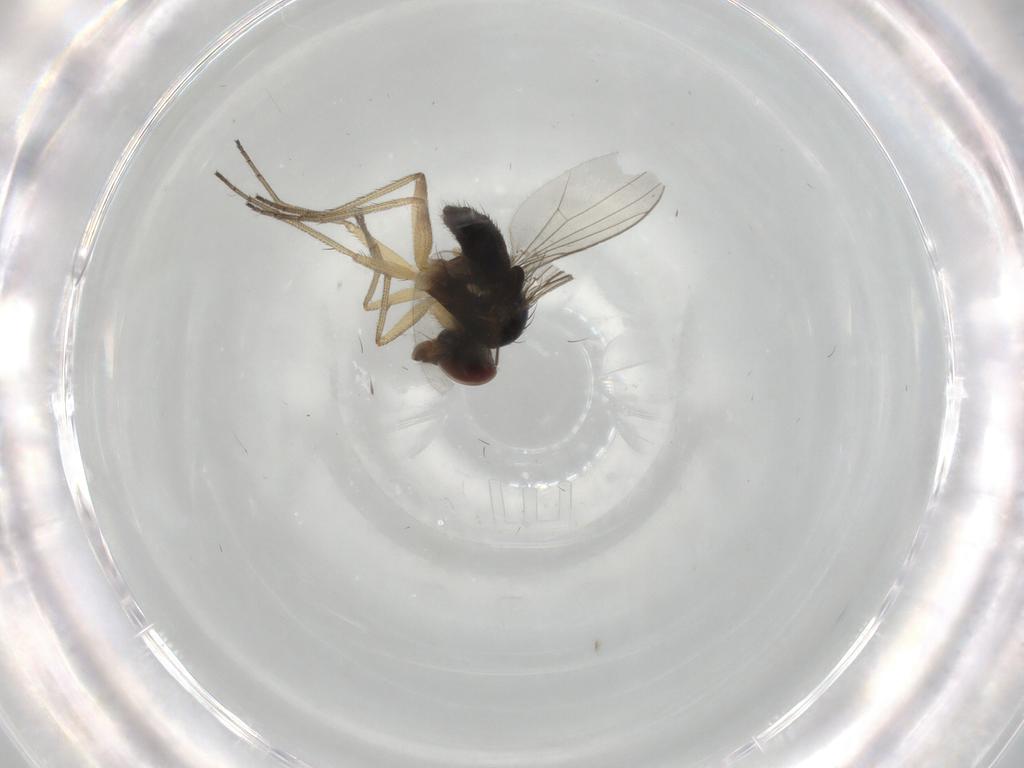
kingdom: Animalia
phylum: Arthropoda
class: Insecta
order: Diptera
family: Dolichopodidae
